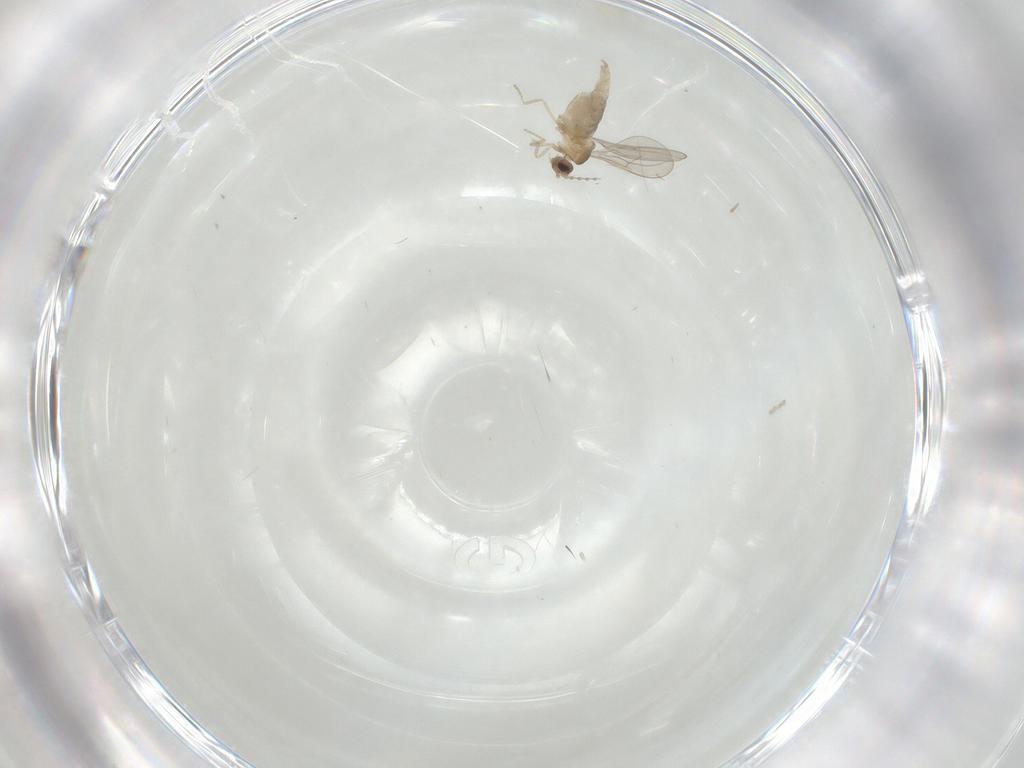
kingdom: Animalia
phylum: Arthropoda
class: Insecta
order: Diptera
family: Cecidomyiidae
